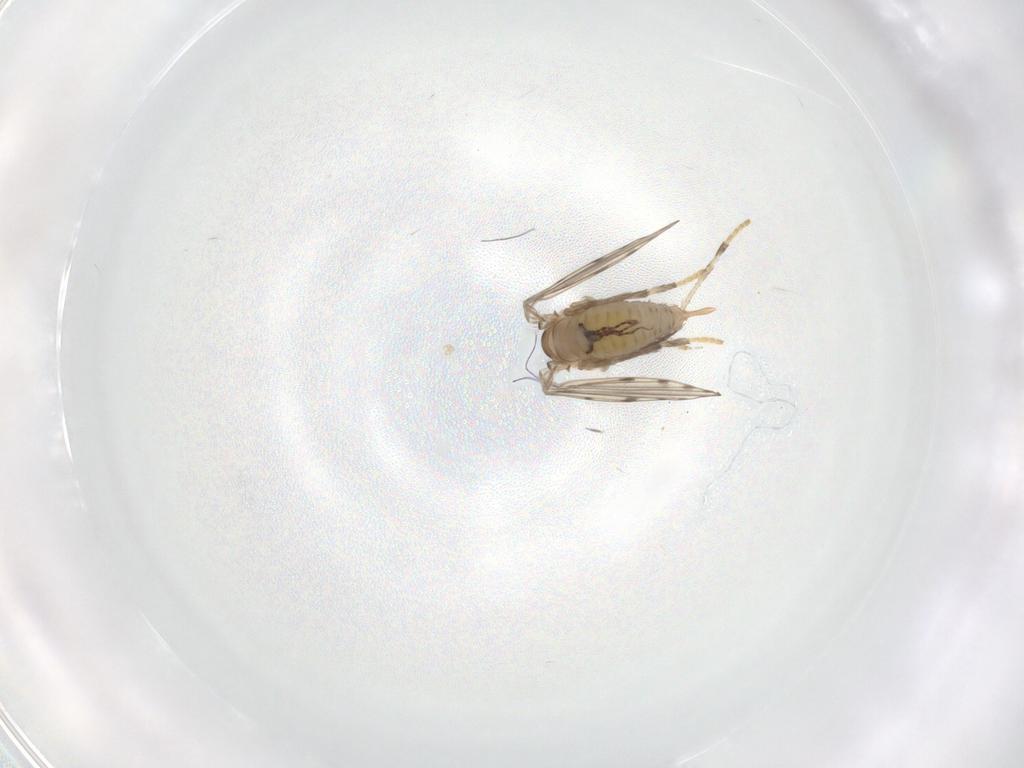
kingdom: Animalia
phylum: Arthropoda
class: Insecta
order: Diptera
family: Psychodidae
